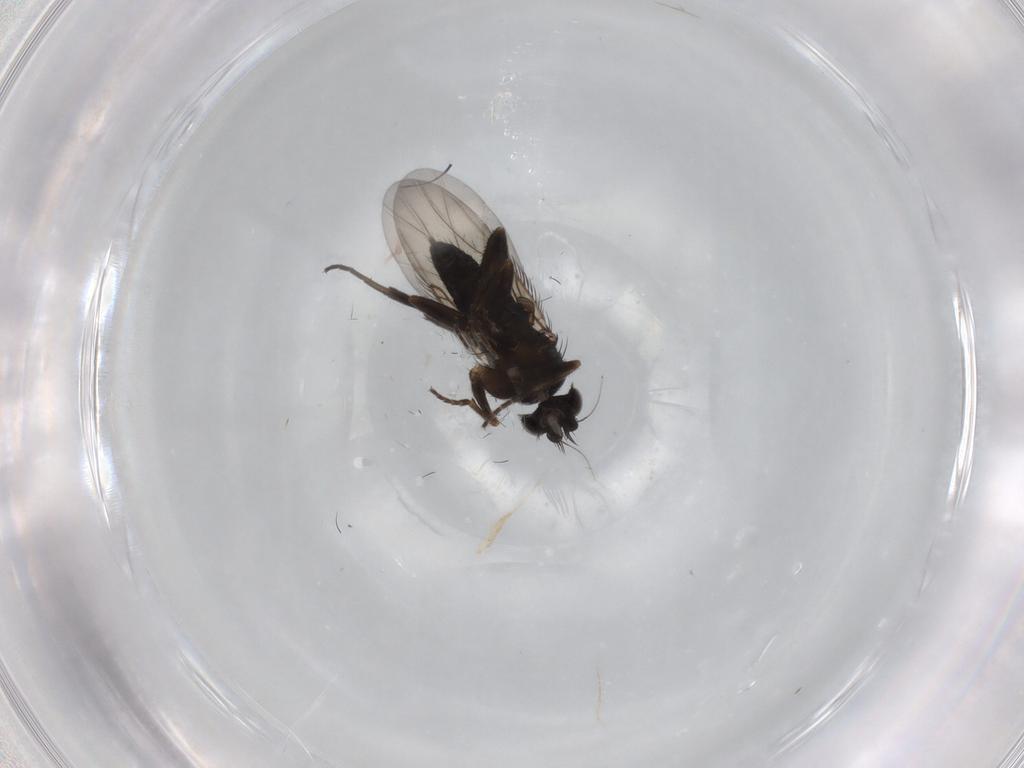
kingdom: Animalia
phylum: Arthropoda
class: Insecta
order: Diptera
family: Phoridae
